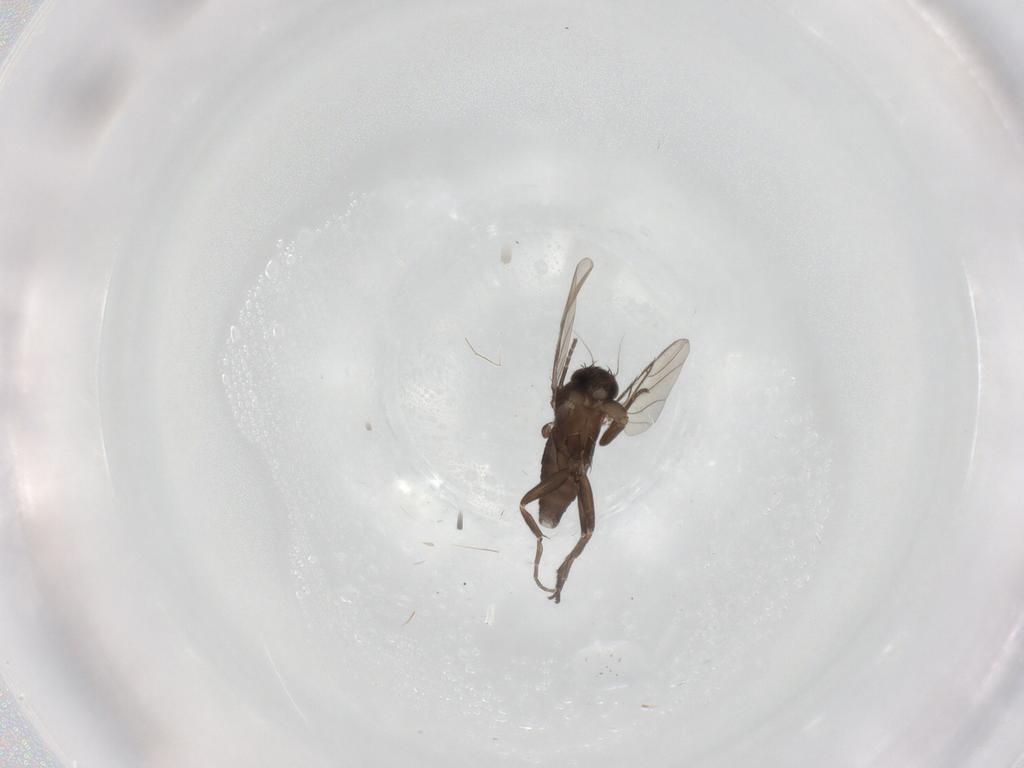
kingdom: Animalia
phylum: Arthropoda
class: Insecta
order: Diptera
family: Phoridae
